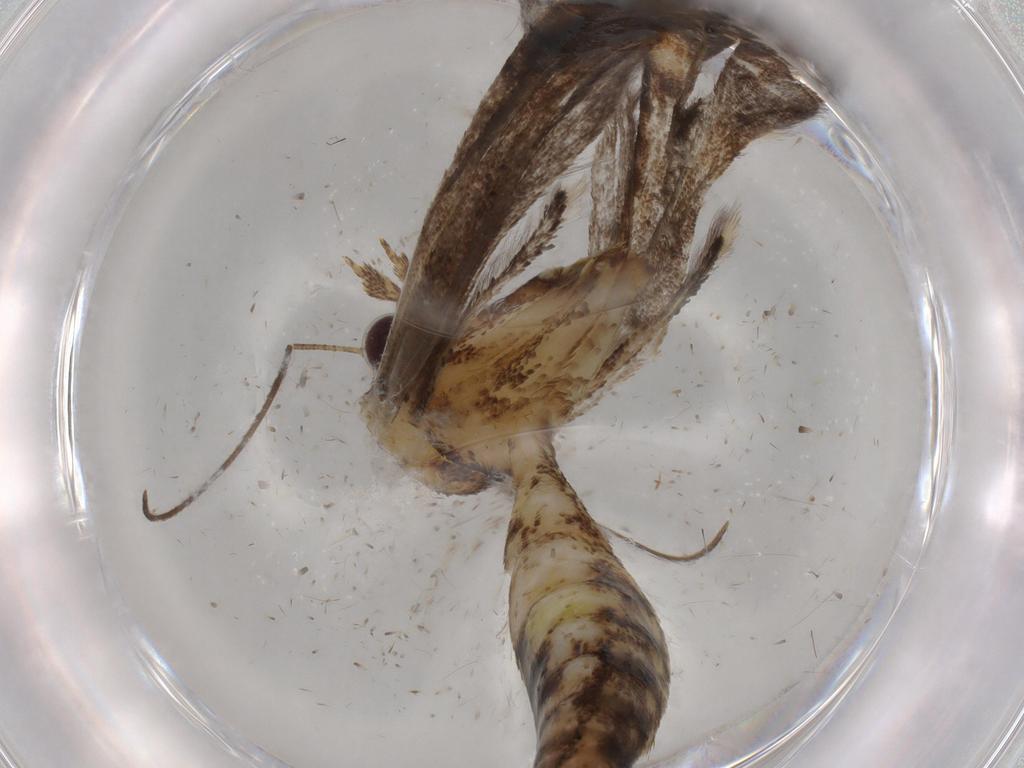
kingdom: Animalia
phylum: Arthropoda
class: Insecta
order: Lepidoptera
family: Pterophoridae
